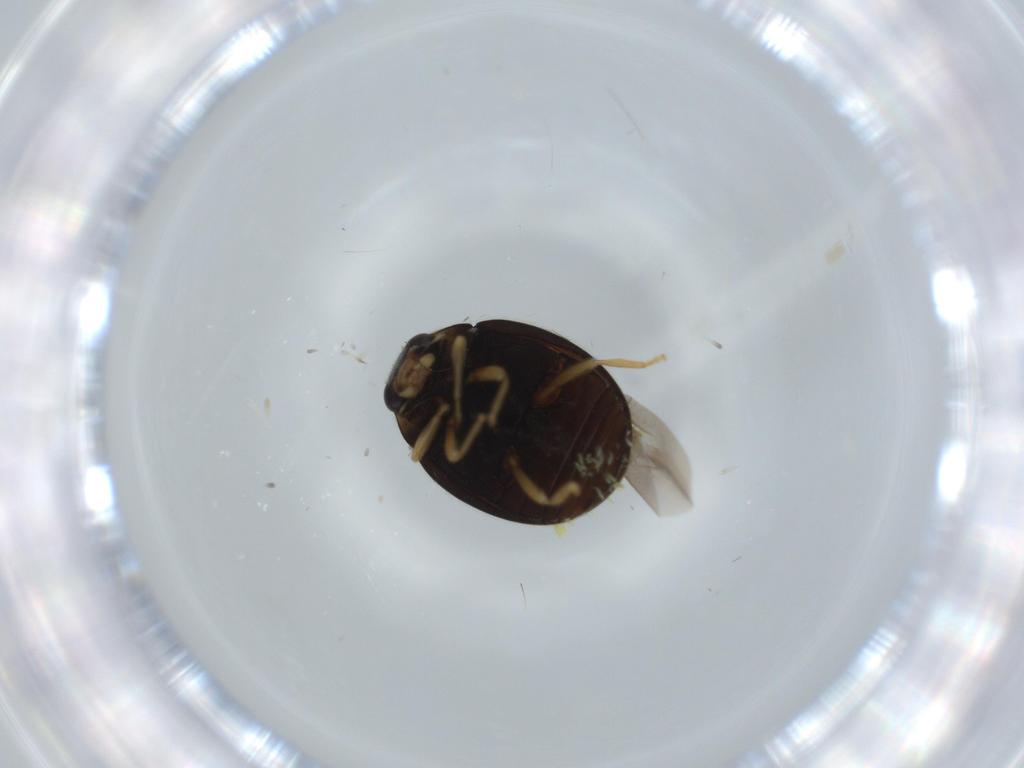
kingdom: Animalia
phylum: Arthropoda
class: Insecta
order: Coleoptera
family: Coccinellidae
